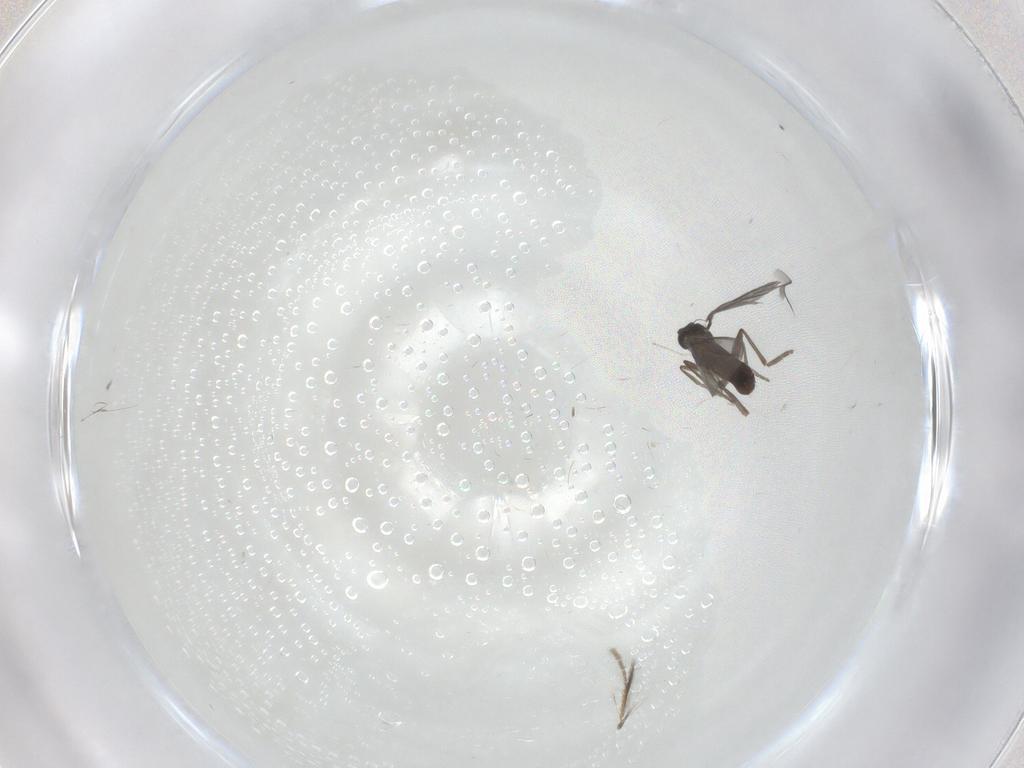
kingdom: Animalia
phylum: Arthropoda
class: Insecta
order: Diptera
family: Phoridae
